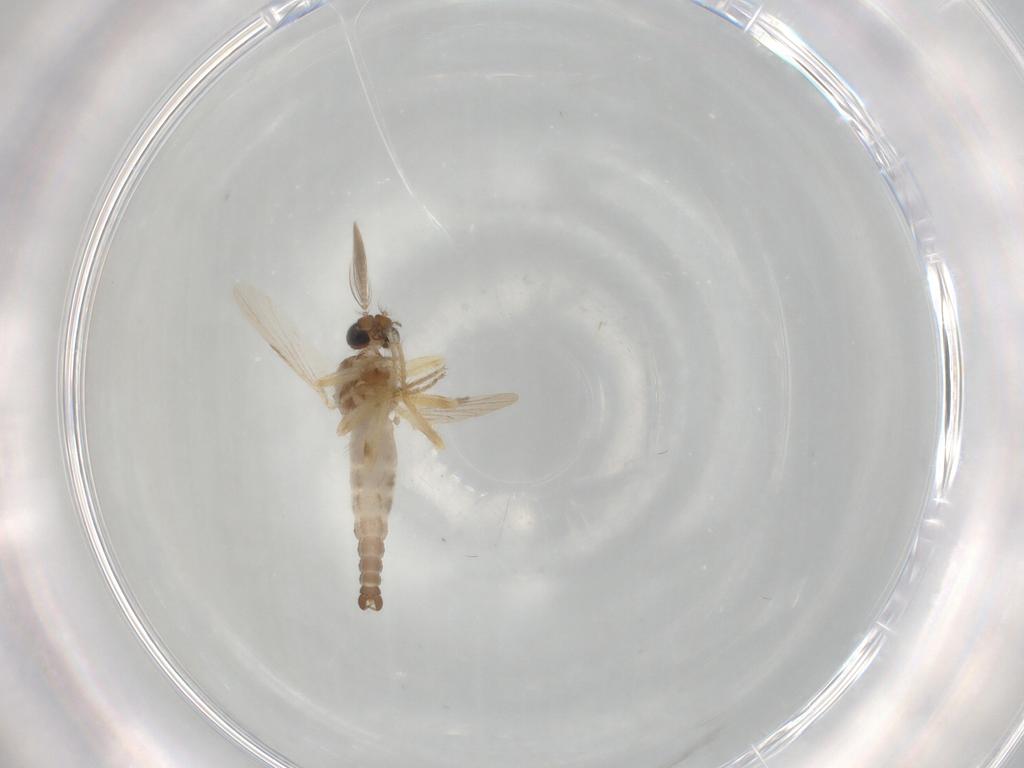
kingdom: Animalia
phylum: Arthropoda
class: Insecta
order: Diptera
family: Ceratopogonidae
